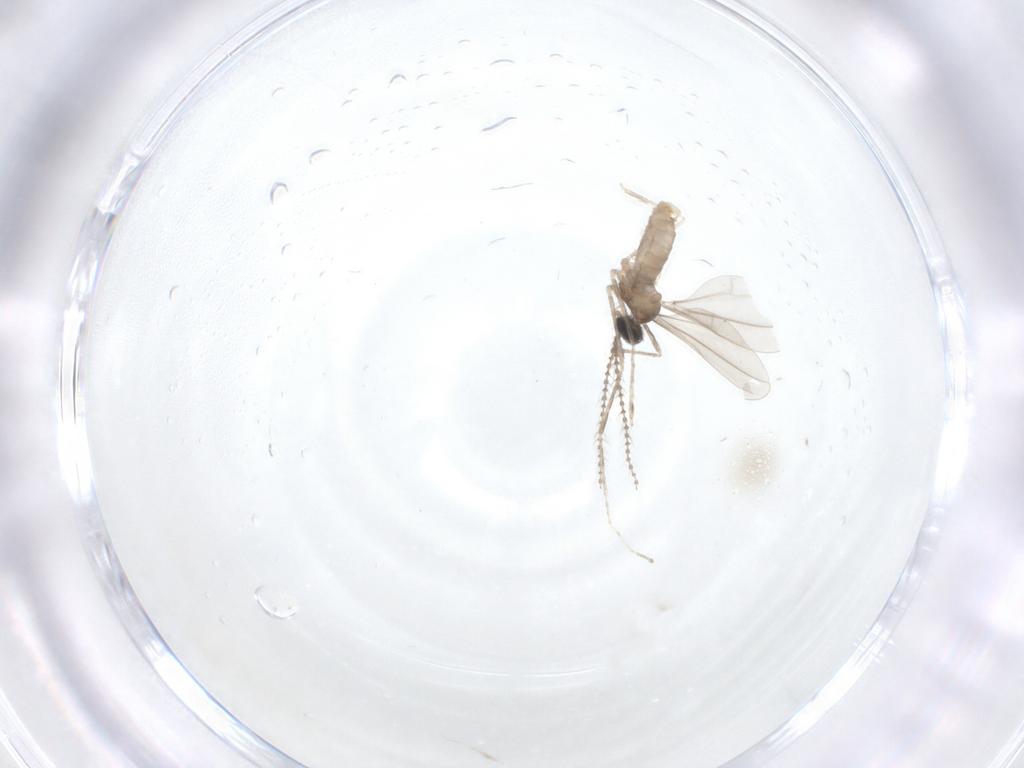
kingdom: Animalia
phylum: Arthropoda
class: Insecta
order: Diptera
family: Cecidomyiidae
